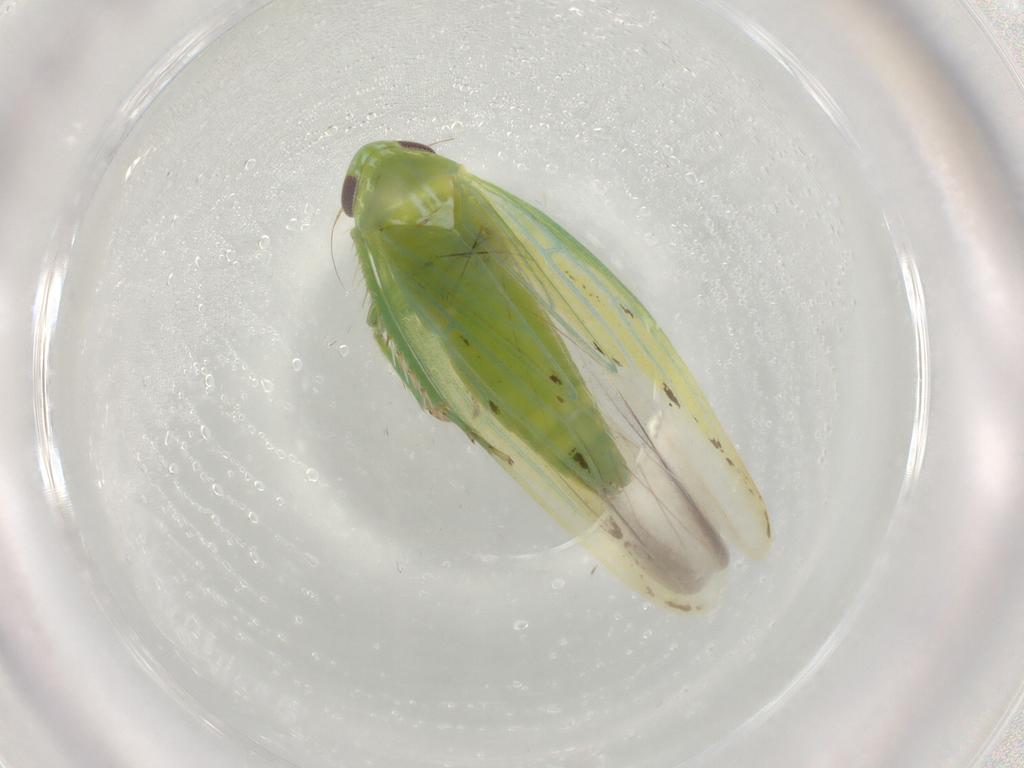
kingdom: Animalia
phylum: Arthropoda
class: Insecta
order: Hemiptera
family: Cicadellidae
